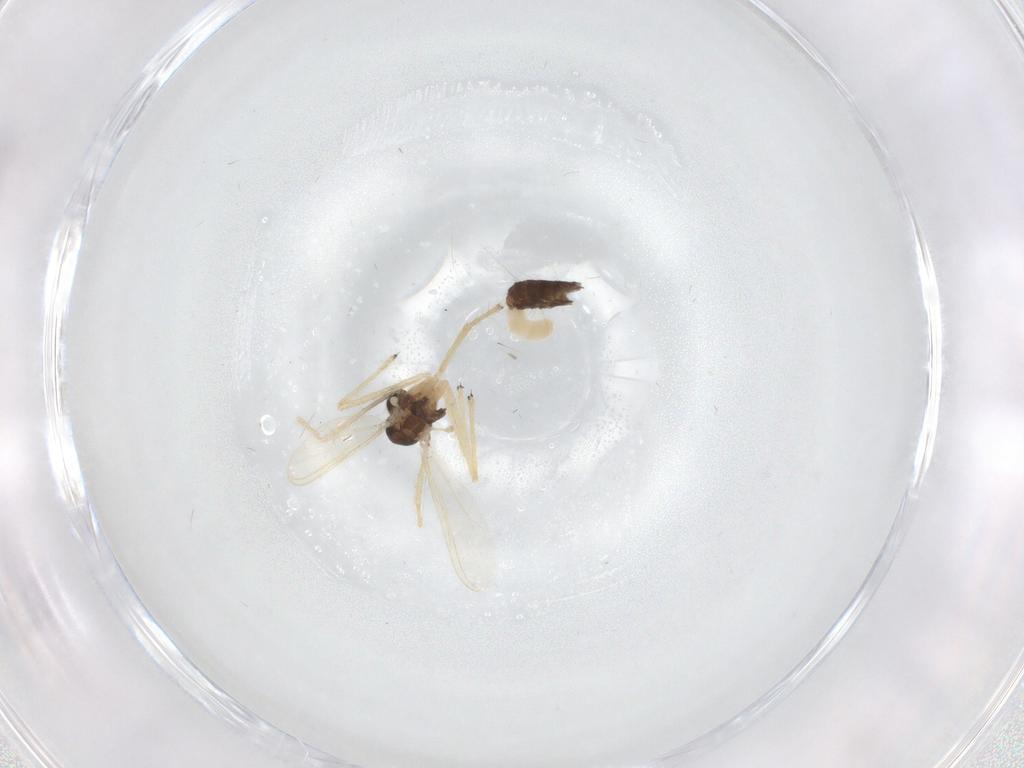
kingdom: Animalia
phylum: Arthropoda
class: Insecta
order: Diptera
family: Chironomidae
